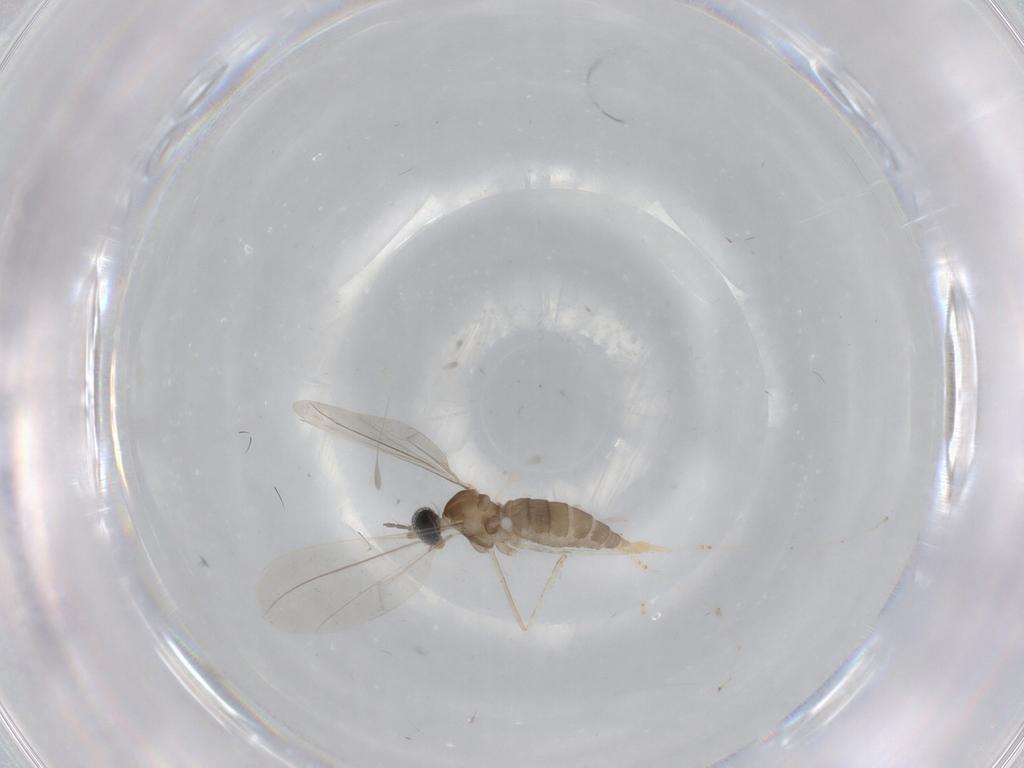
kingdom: Animalia
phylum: Arthropoda
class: Insecta
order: Diptera
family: Cecidomyiidae
